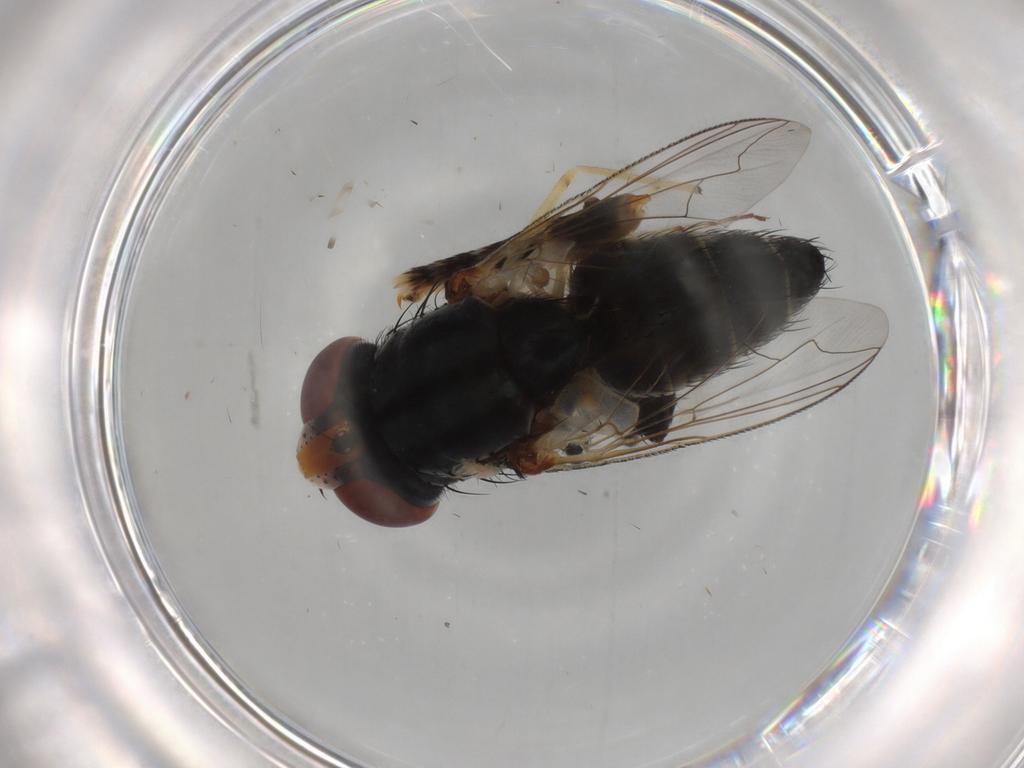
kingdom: Animalia
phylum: Arthropoda
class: Insecta
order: Diptera
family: Sarcophagidae
